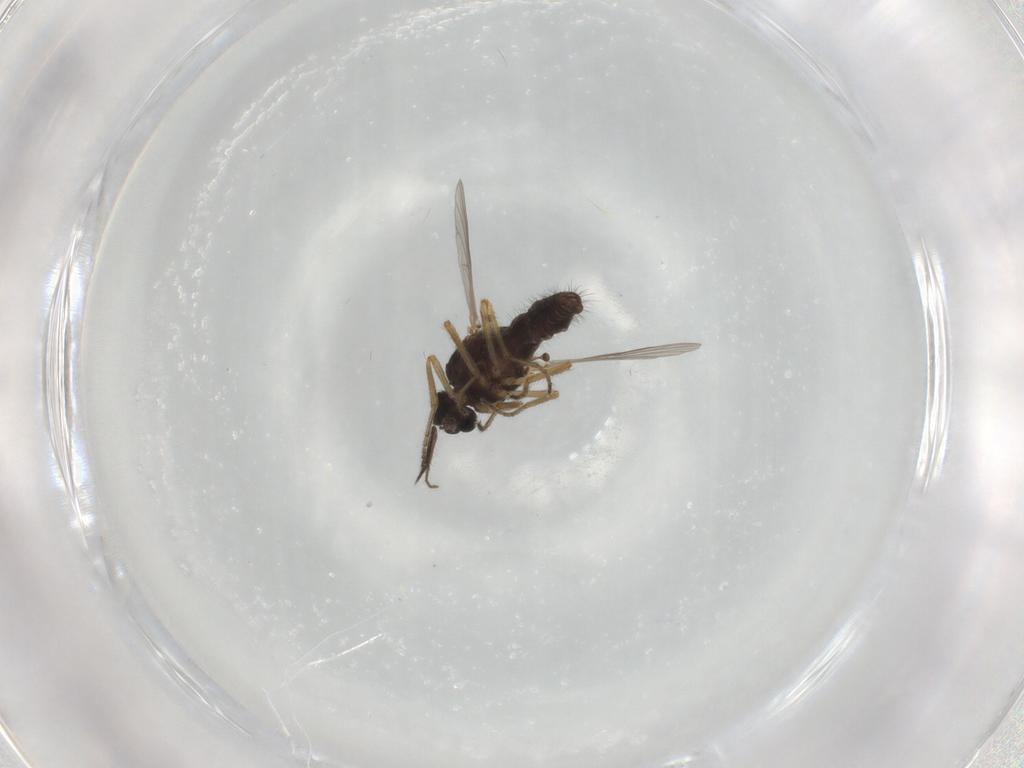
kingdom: Animalia
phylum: Arthropoda
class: Insecta
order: Diptera
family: Ceratopogonidae
